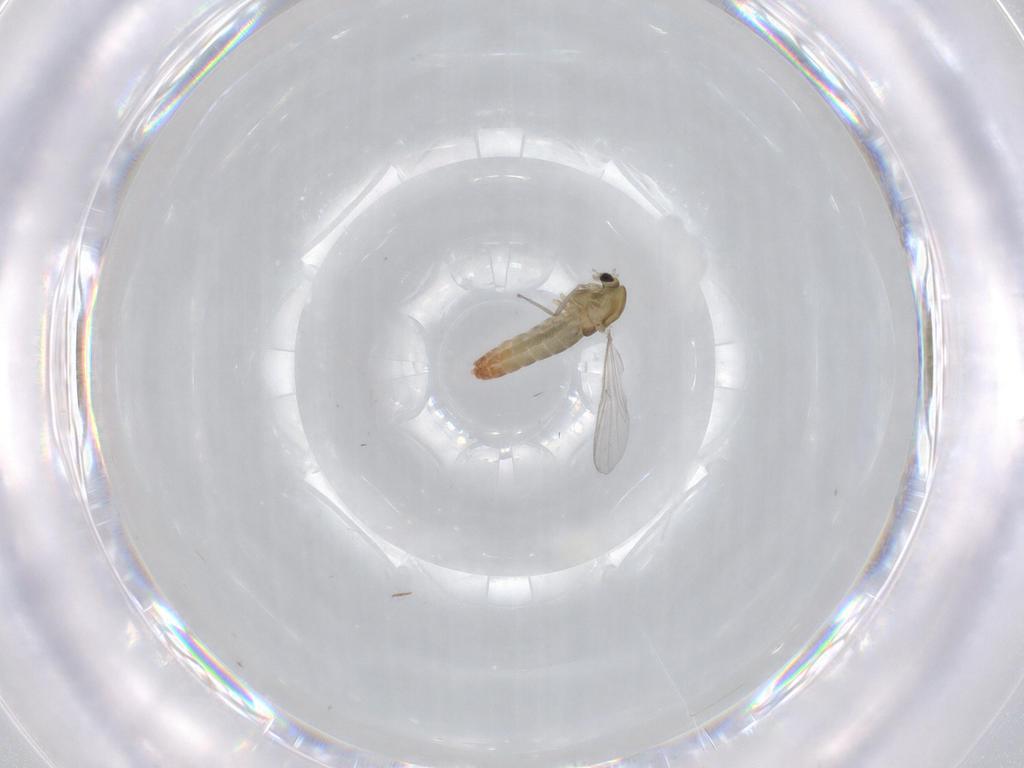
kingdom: Animalia
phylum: Arthropoda
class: Insecta
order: Diptera
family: Chironomidae
